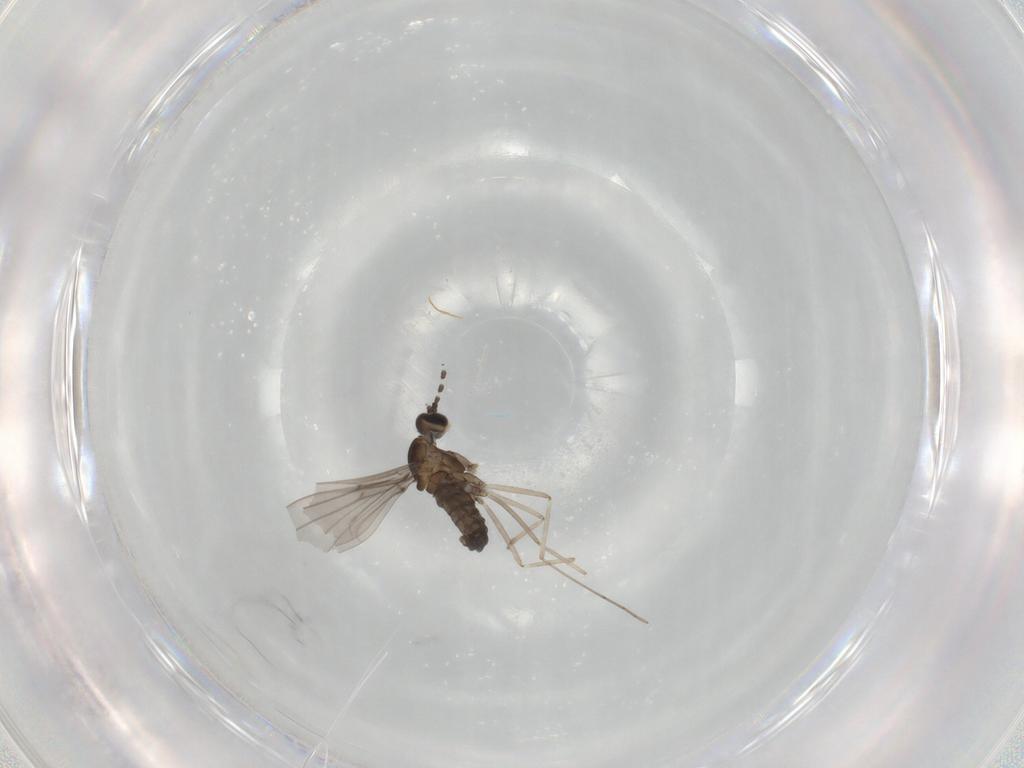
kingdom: Animalia
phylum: Arthropoda
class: Insecta
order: Diptera
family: Cecidomyiidae
